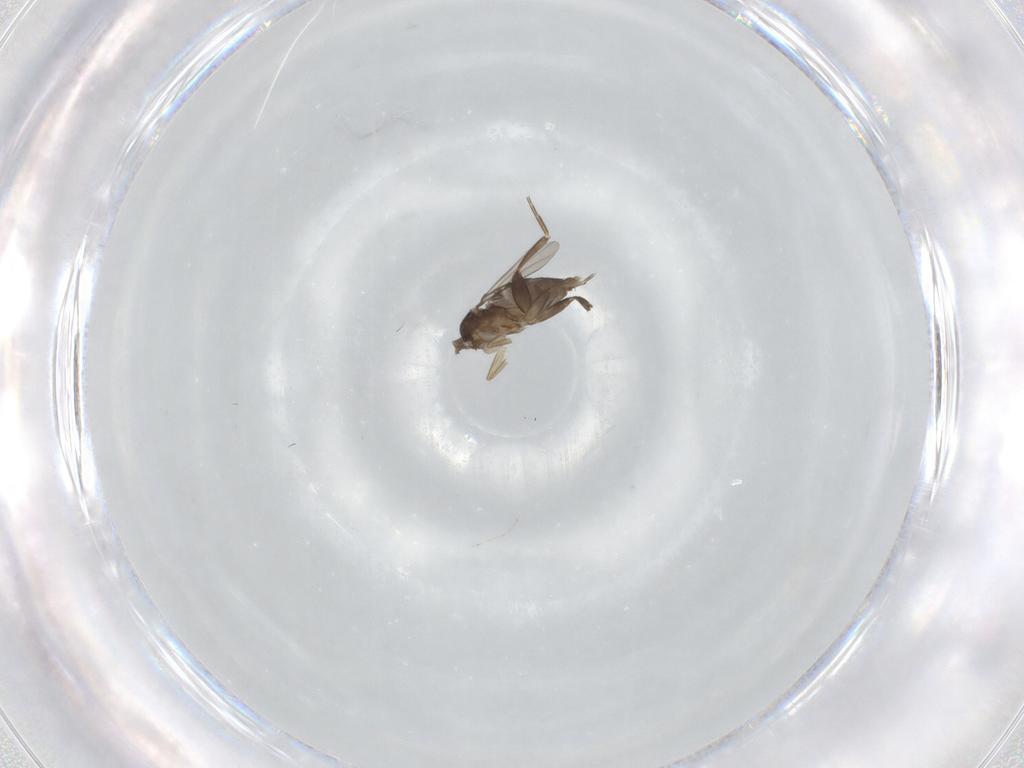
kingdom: Animalia
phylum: Arthropoda
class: Insecta
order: Diptera
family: Phoridae
